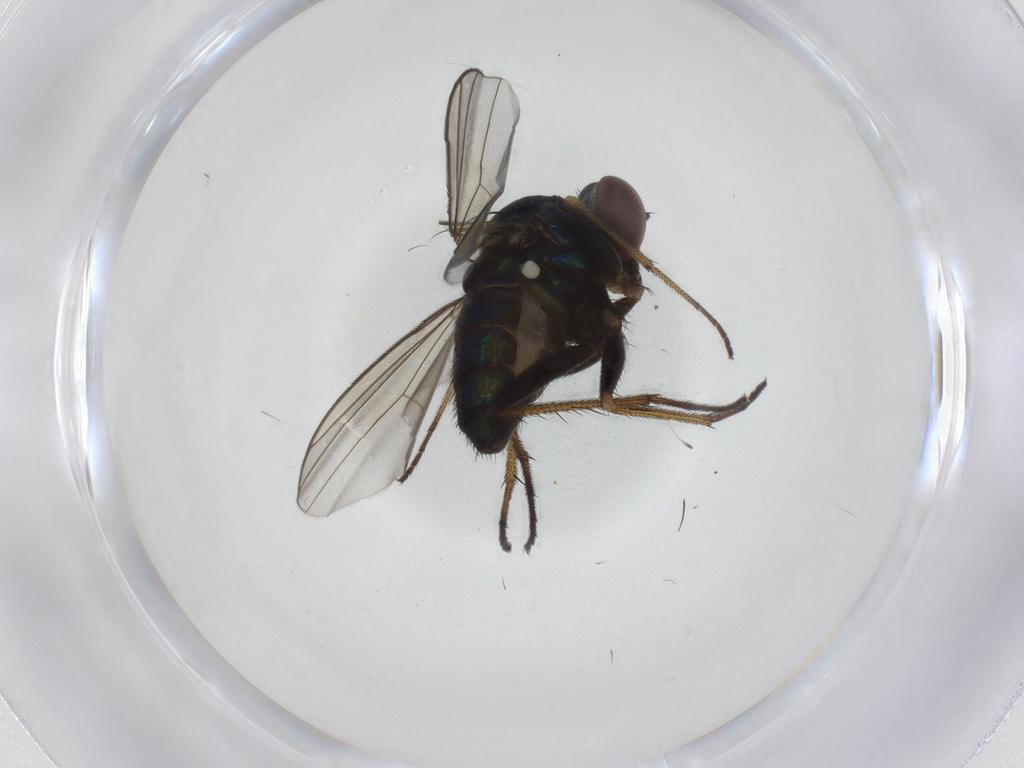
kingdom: Animalia
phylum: Arthropoda
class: Insecta
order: Diptera
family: Dolichopodidae
